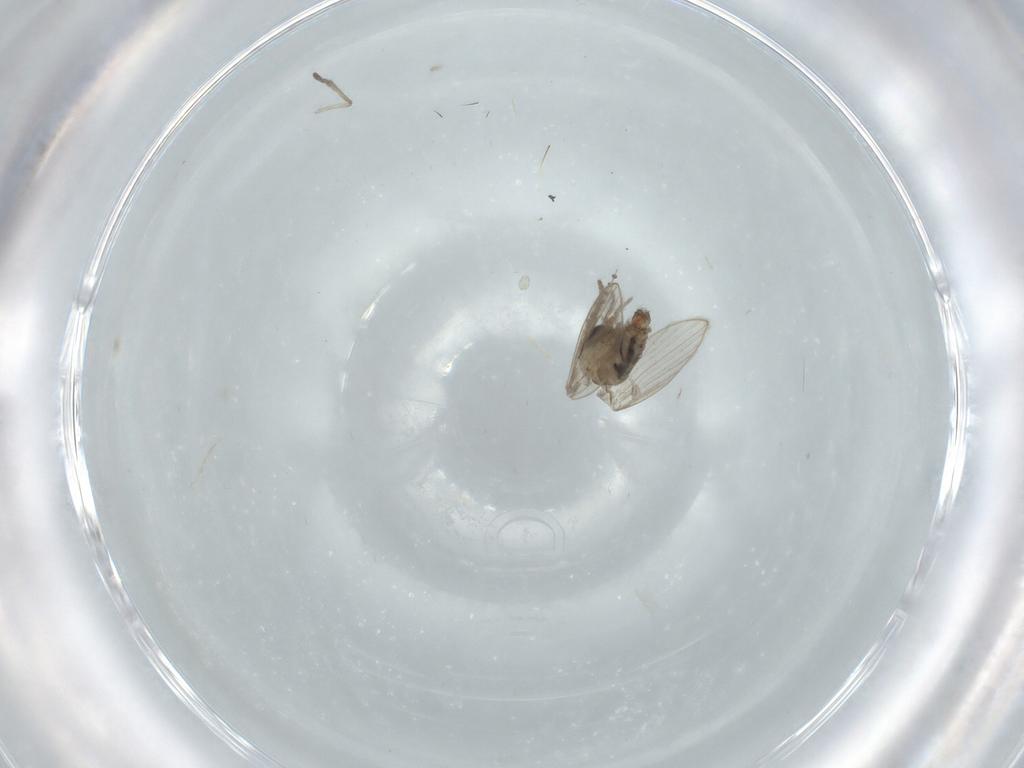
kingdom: Animalia
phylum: Arthropoda
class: Insecta
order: Diptera
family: Psychodidae
